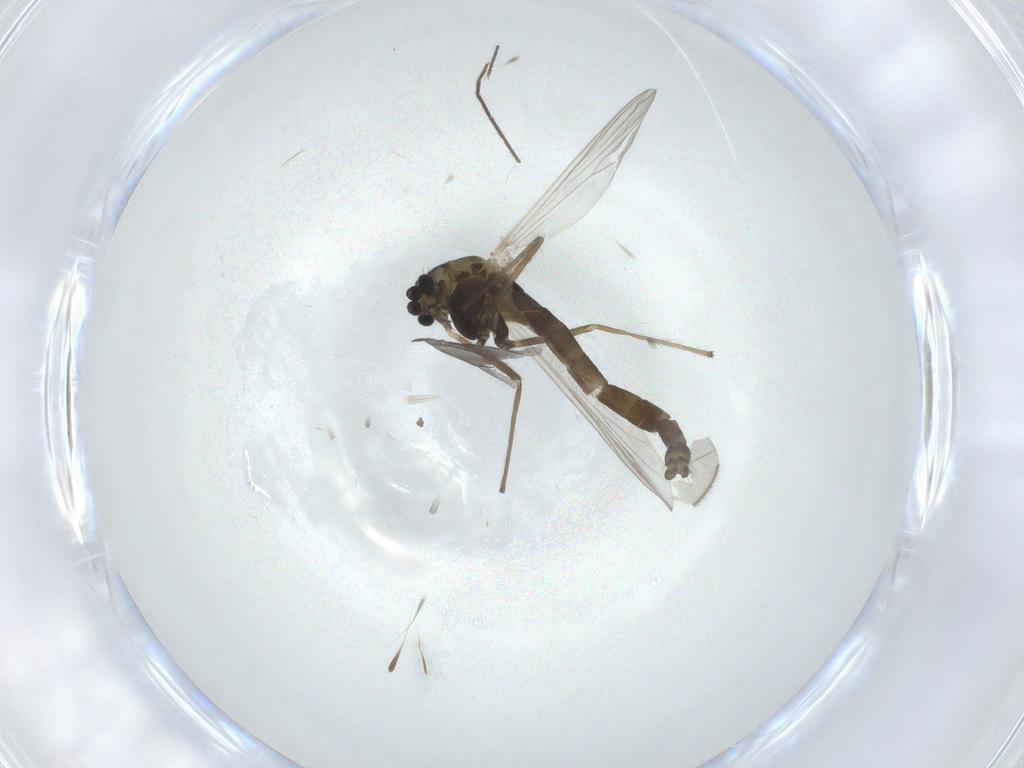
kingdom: Animalia
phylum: Arthropoda
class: Insecta
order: Diptera
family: Chironomidae
